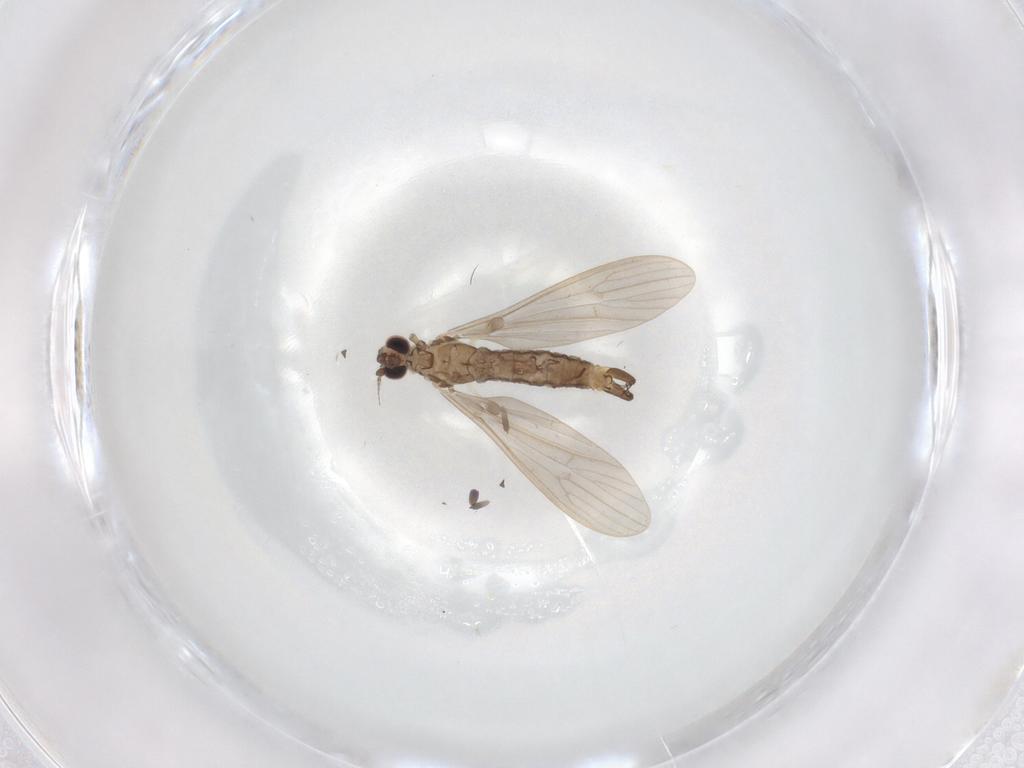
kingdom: Animalia
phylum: Arthropoda
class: Insecta
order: Diptera
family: Limoniidae
